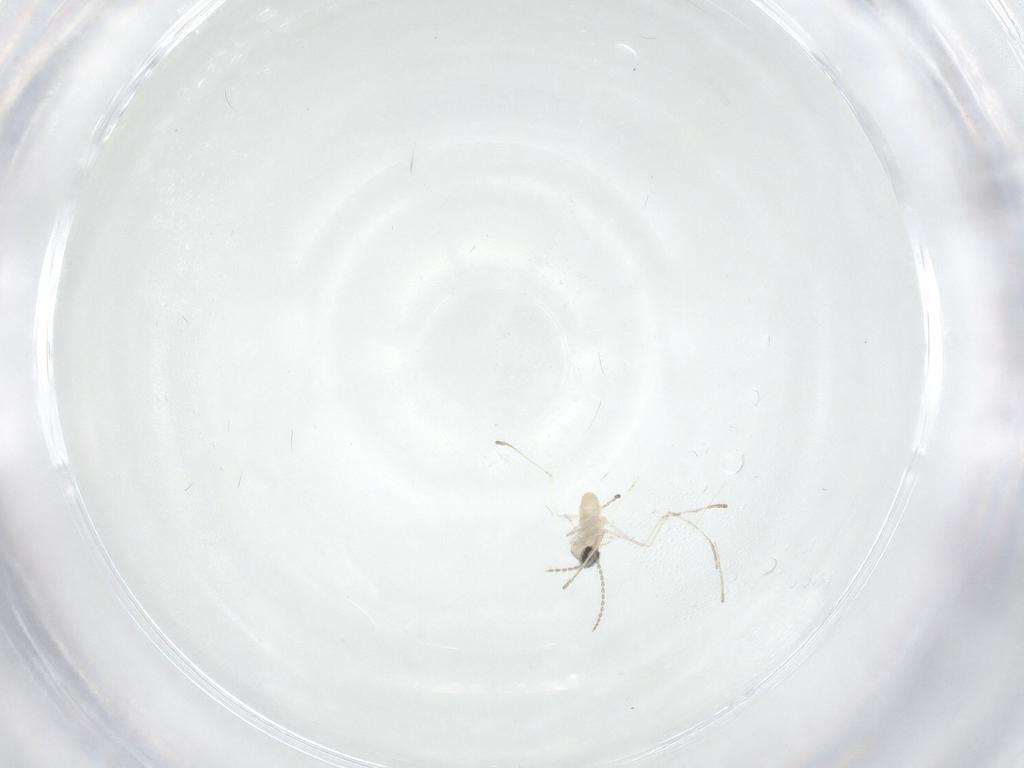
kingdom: Animalia
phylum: Arthropoda
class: Insecta
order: Diptera
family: Cecidomyiidae
